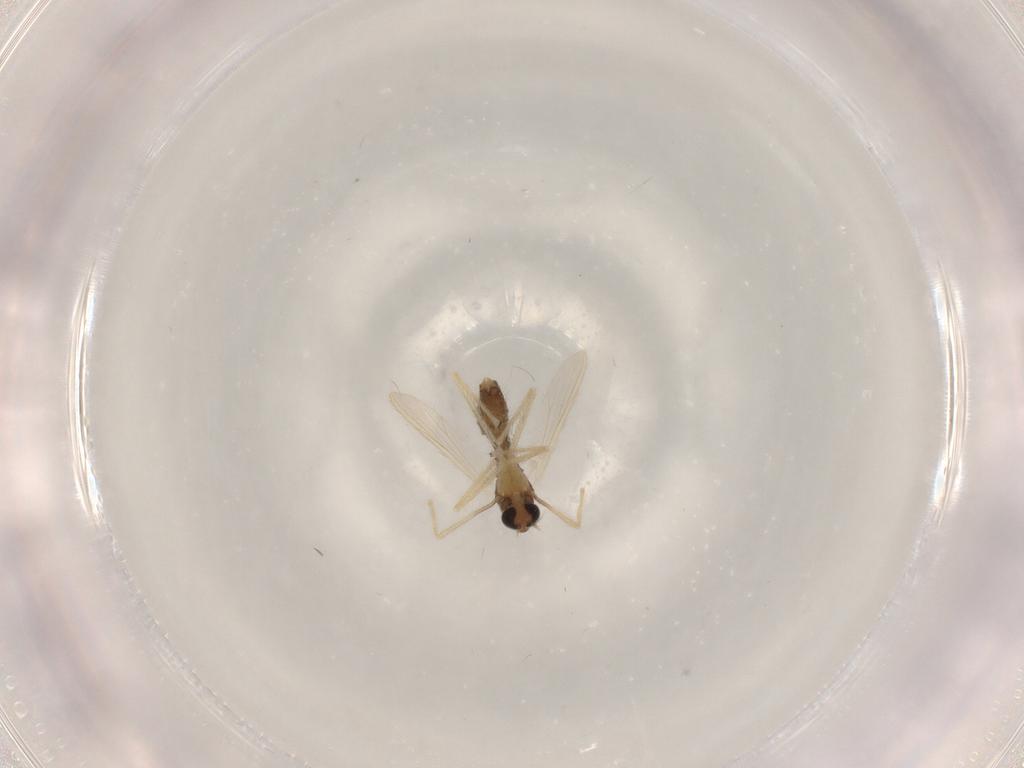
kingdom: Animalia
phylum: Arthropoda
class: Insecta
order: Diptera
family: Chironomidae
